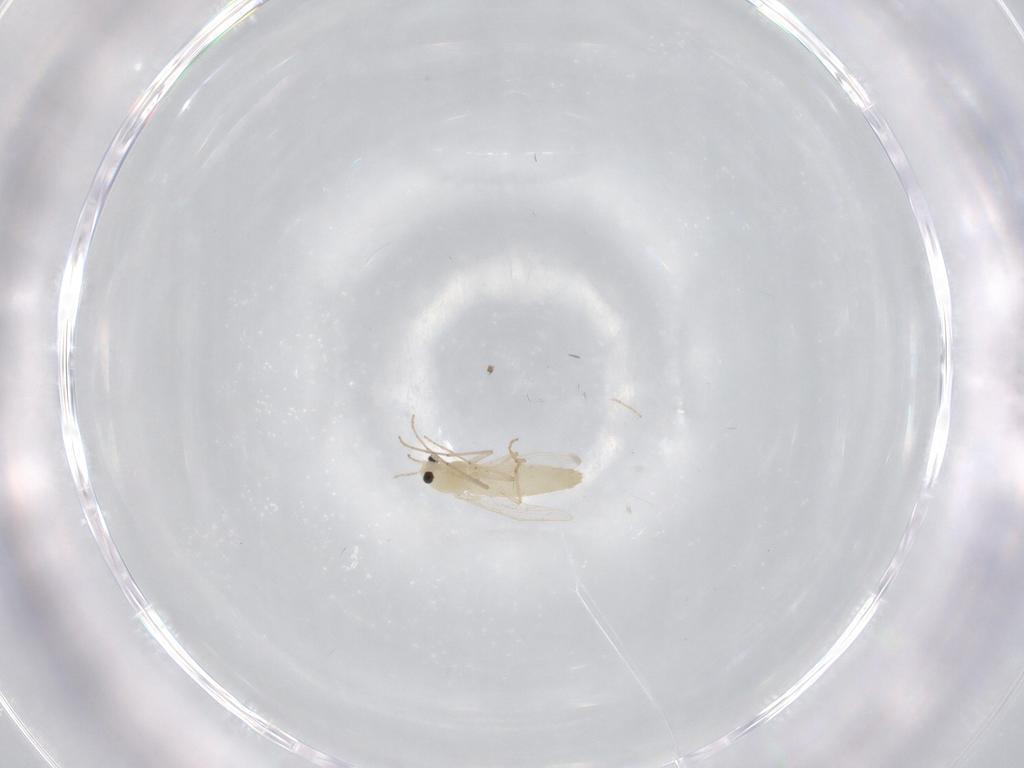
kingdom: Animalia
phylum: Arthropoda
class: Insecta
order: Diptera
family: Chironomidae
